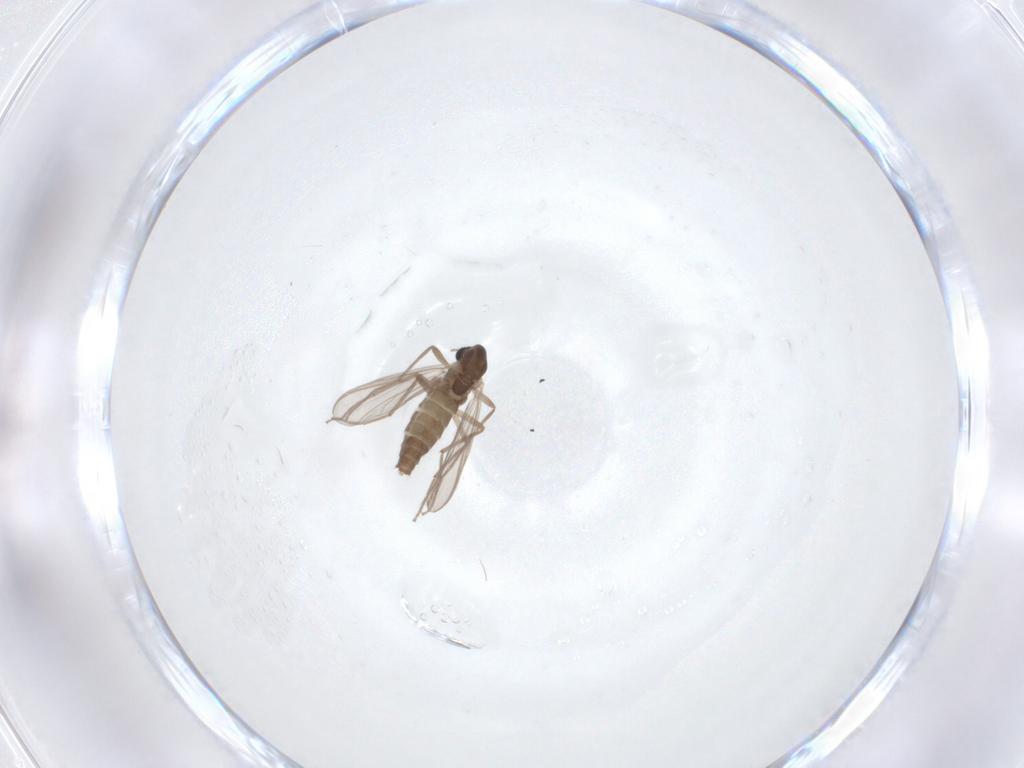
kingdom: Animalia
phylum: Arthropoda
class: Insecta
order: Diptera
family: Chironomidae
